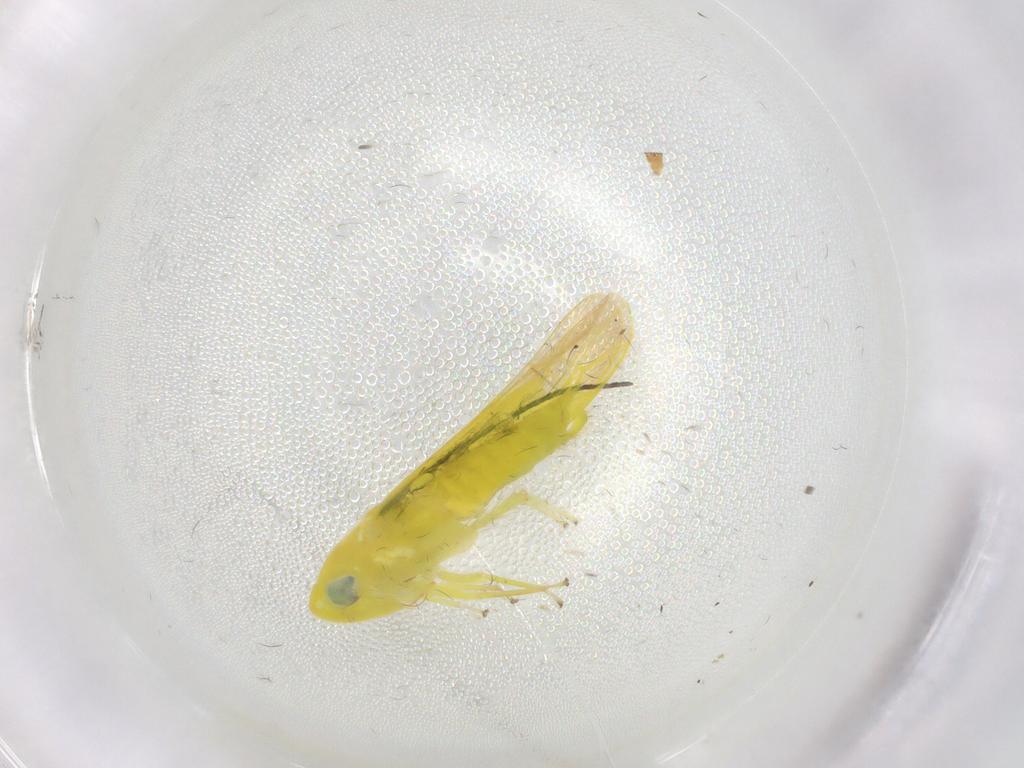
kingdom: Animalia
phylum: Arthropoda
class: Insecta
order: Hemiptera
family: Cicadellidae
